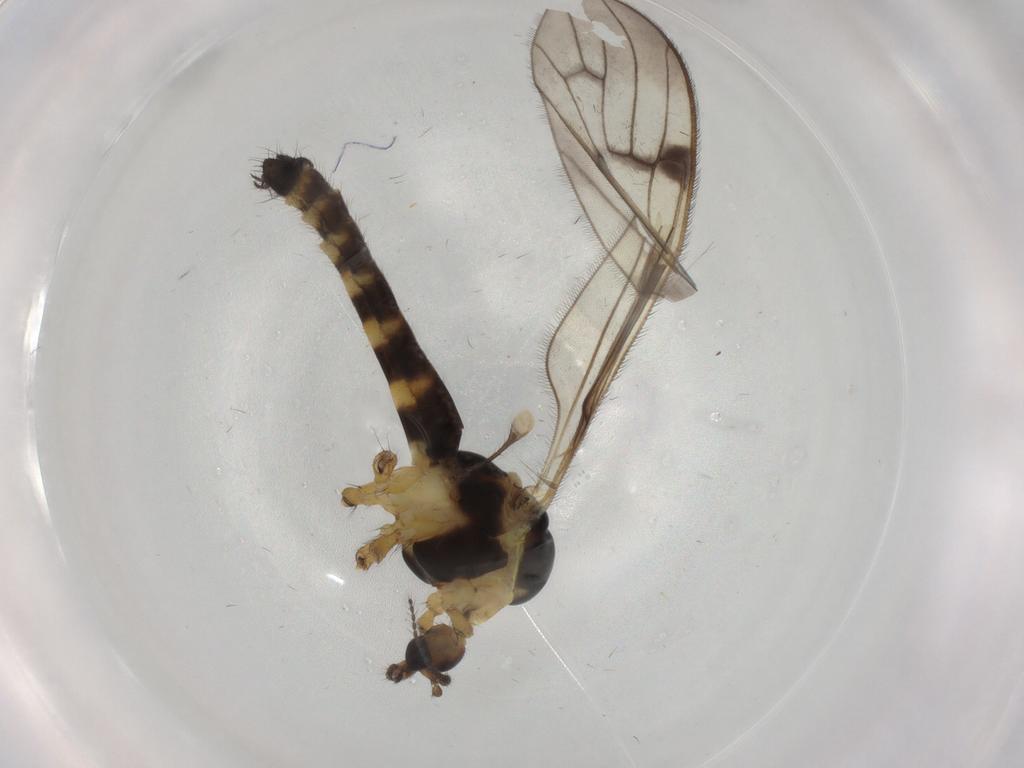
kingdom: Animalia
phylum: Arthropoda
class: Insecta
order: Diptera
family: Limoniidae
